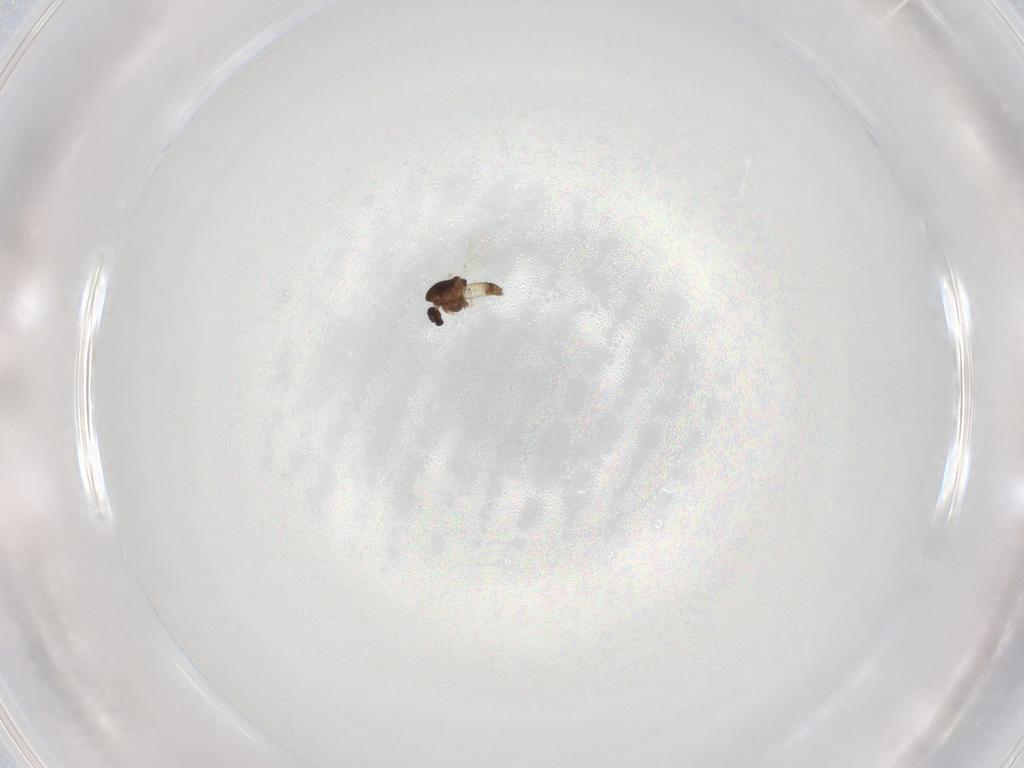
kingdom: Animalia
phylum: Arthropoda
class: Insecta
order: Diptera
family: Chironomidae
